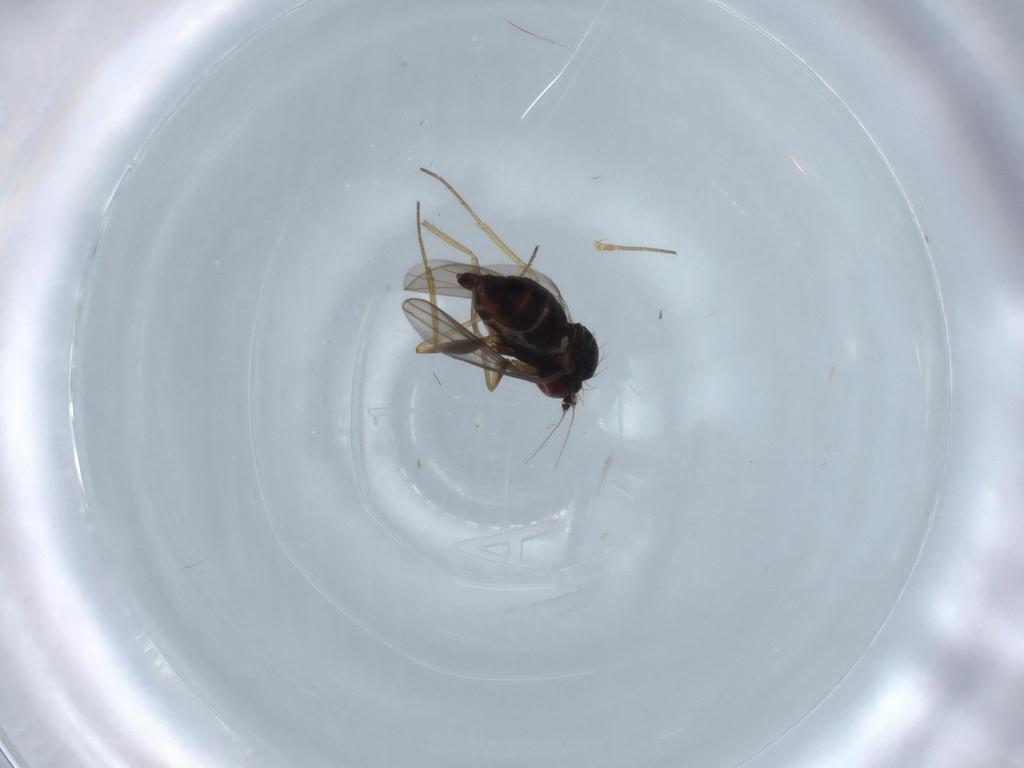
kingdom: Animalia
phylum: Arthropoda
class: Insecta
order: Diptera
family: Dolichopodidae
